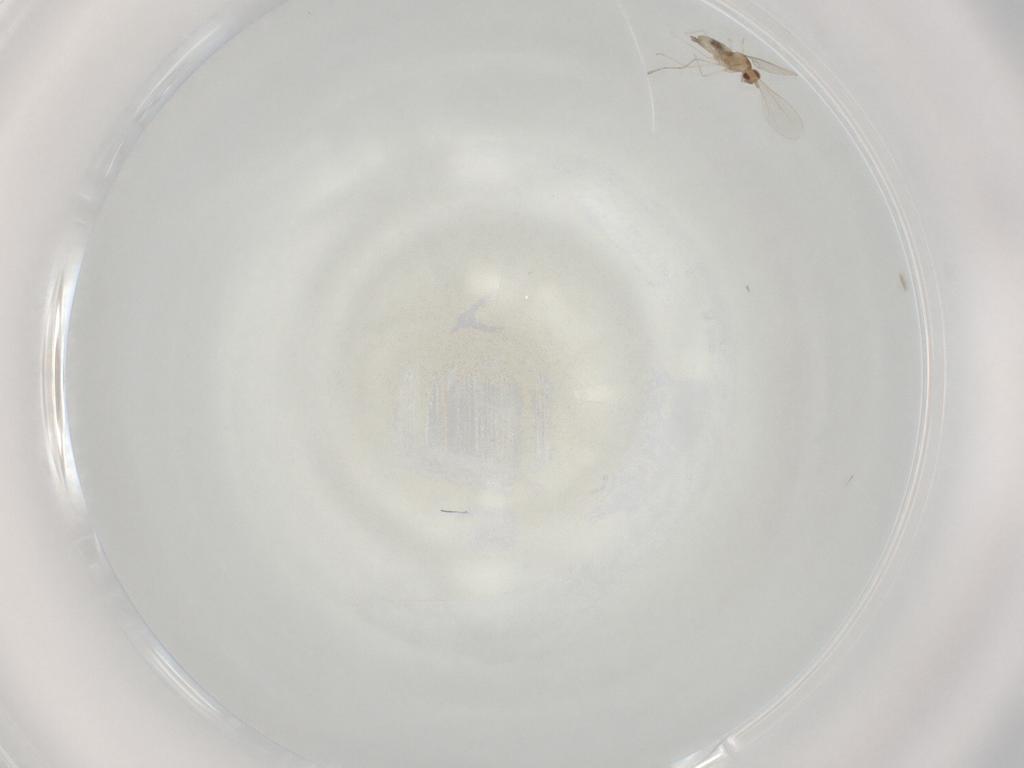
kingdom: Animalia
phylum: Arthropoda
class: Insecta
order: Diptera
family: Cecidomyiidae
